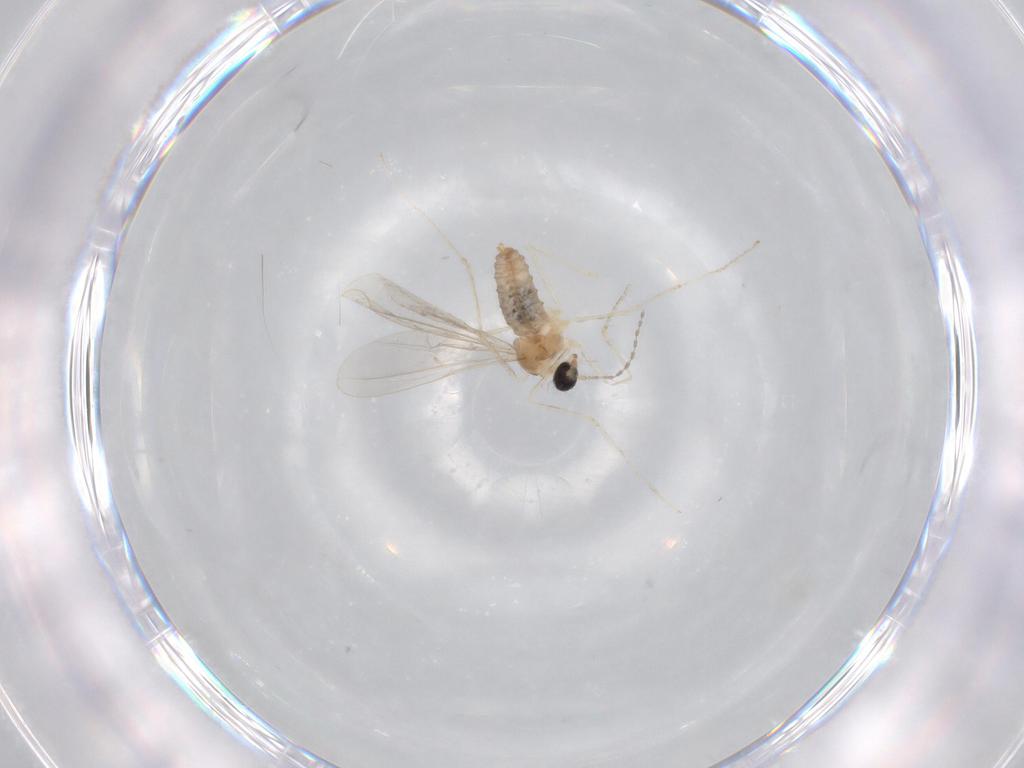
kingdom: Animalia
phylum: Arthropoda
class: Insecta
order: Diptera
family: Cecidomyiidae
